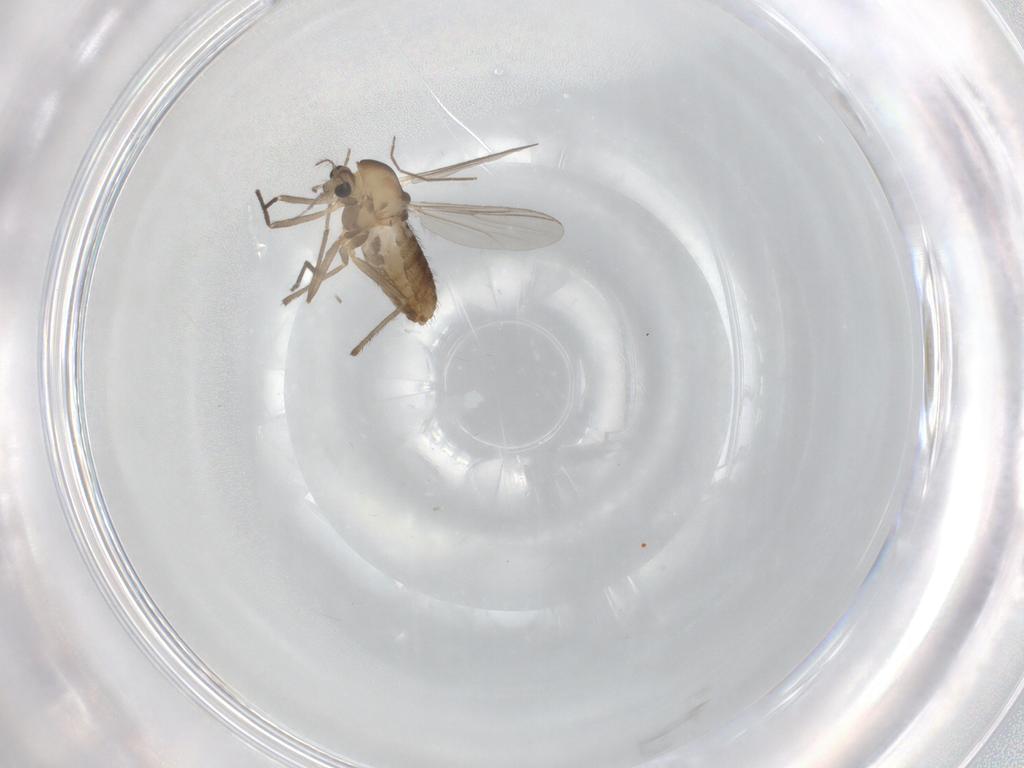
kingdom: Animalia
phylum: Arthropoda
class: Insecta
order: Diptera
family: Chironomidae
